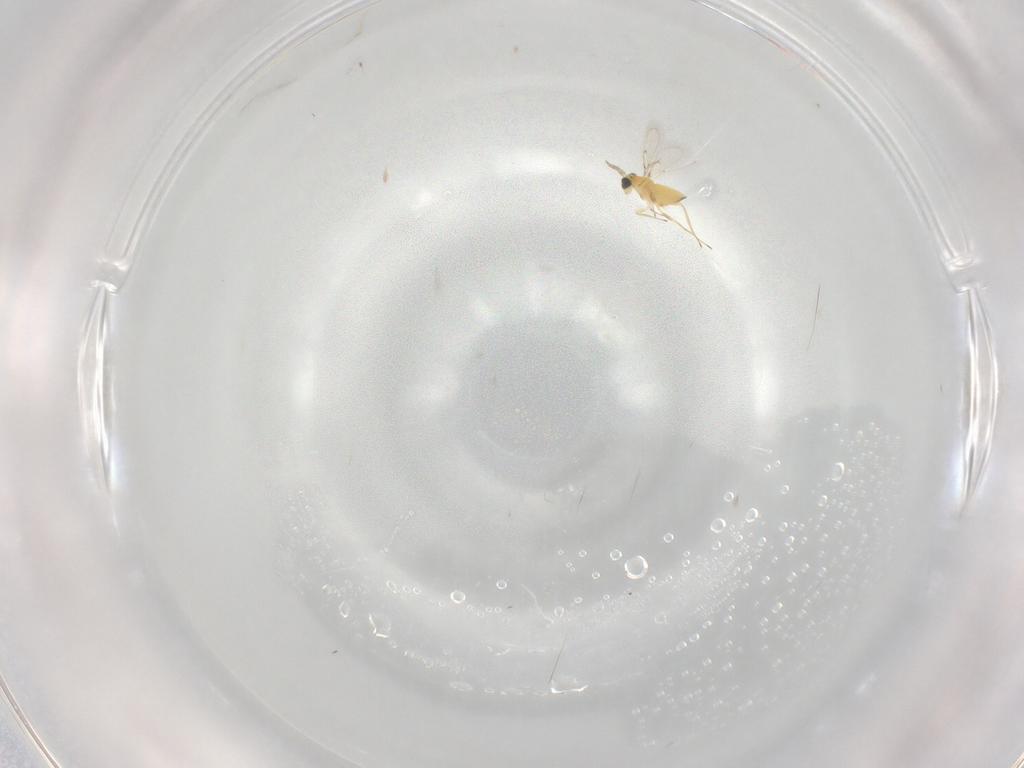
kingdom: Animalia
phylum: Arthropoda
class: Insecta
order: Hymenoptera
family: Trichogrammatidae
